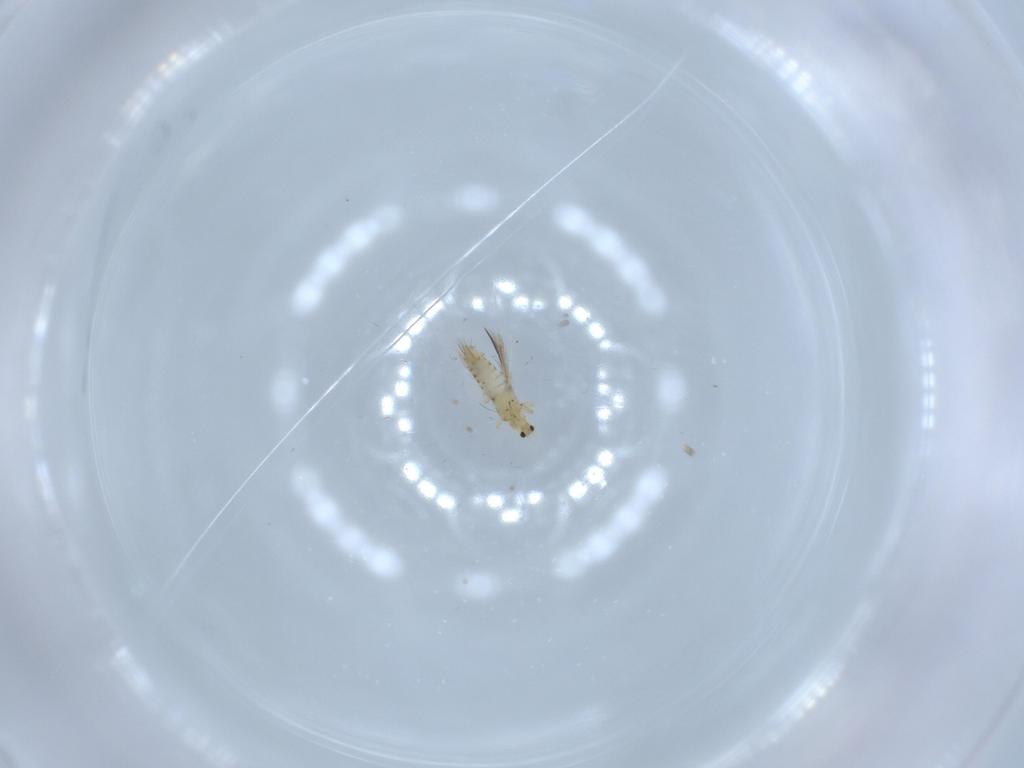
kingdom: Animalia
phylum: Arthropoda
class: Insecta
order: Thysanoptera
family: Thripidae
